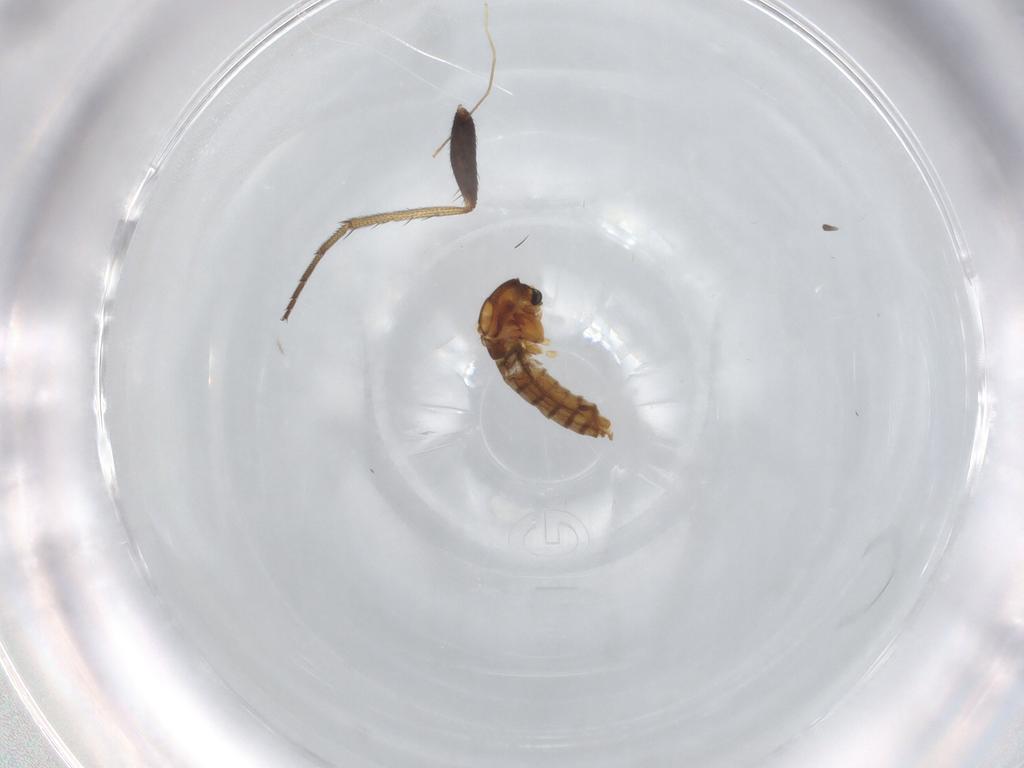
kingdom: Animalia
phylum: Arthropoda
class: Insecta
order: Diptera
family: Dolichopodidae
